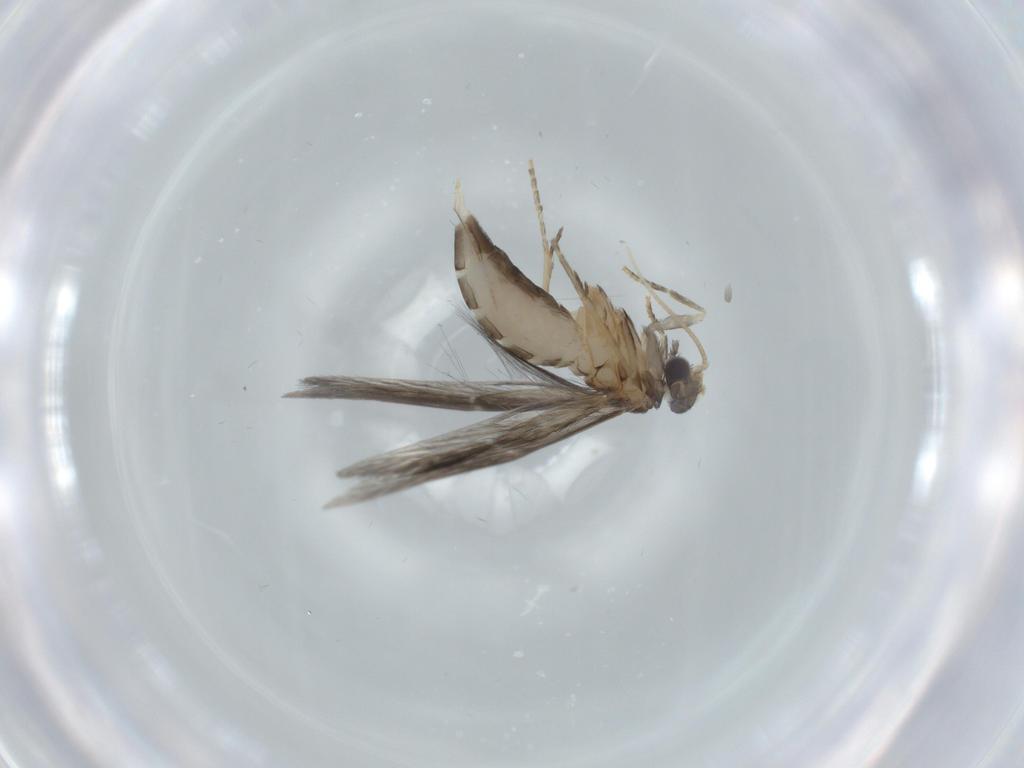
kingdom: Animalia
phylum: Arthropoda
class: Insecta
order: Trichoptera
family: Hydroptilidae
